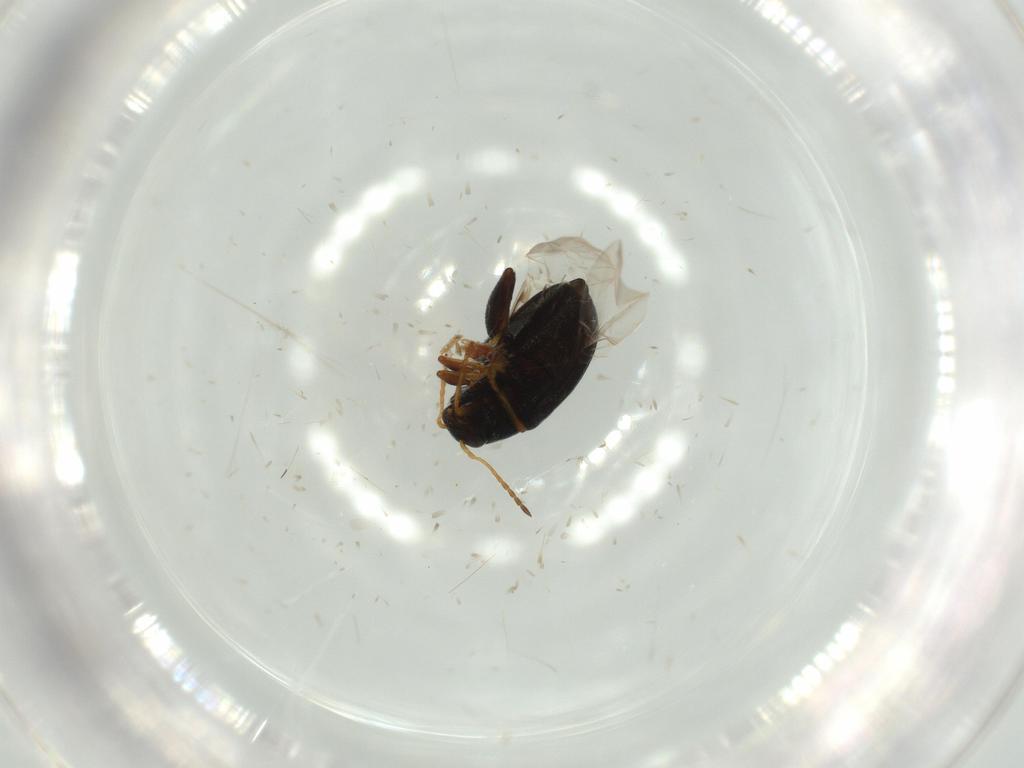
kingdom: Animalia
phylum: Arthropoda
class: Insecta
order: Coleoptera
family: Chrysomelidae
